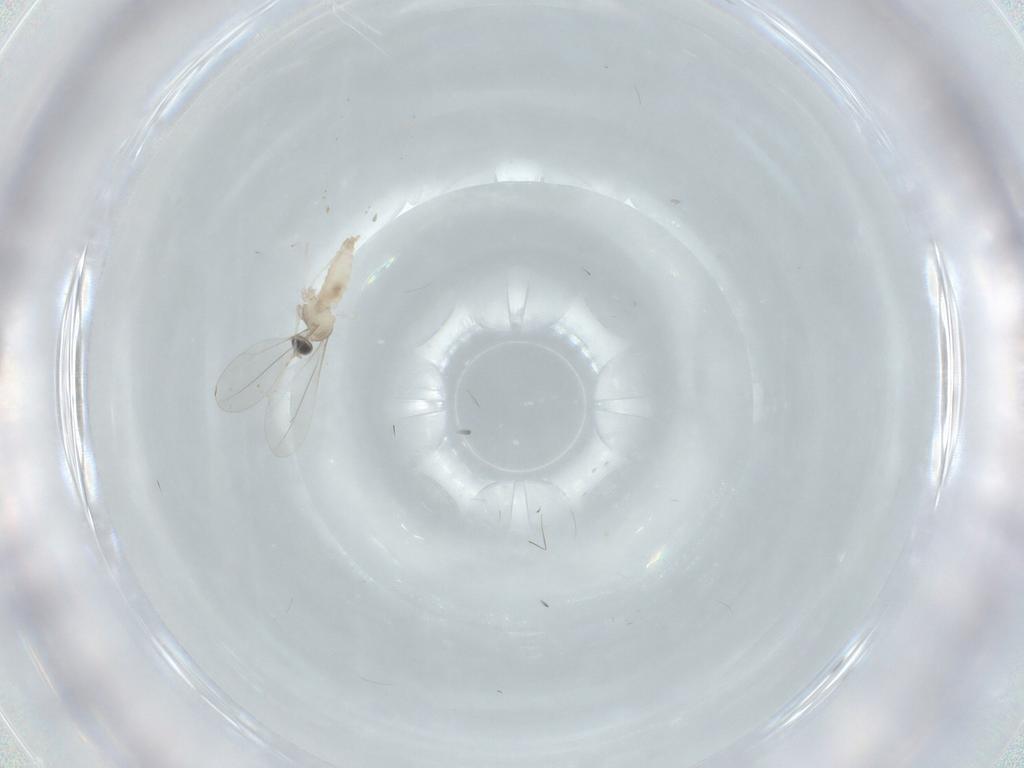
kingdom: Animalia
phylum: Arthropoda
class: Insecta
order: Diptera
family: Cecidomyiidae
